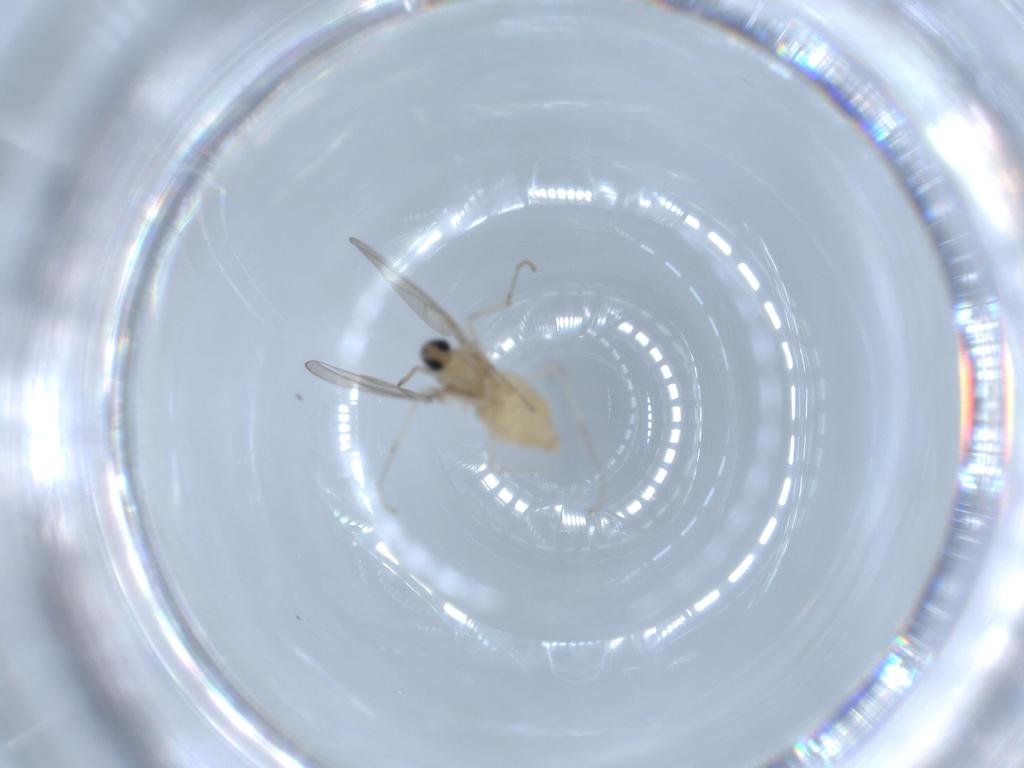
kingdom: Animalia
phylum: Arthropoda
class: Insecta
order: Diptera
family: Cecidomyiidae
